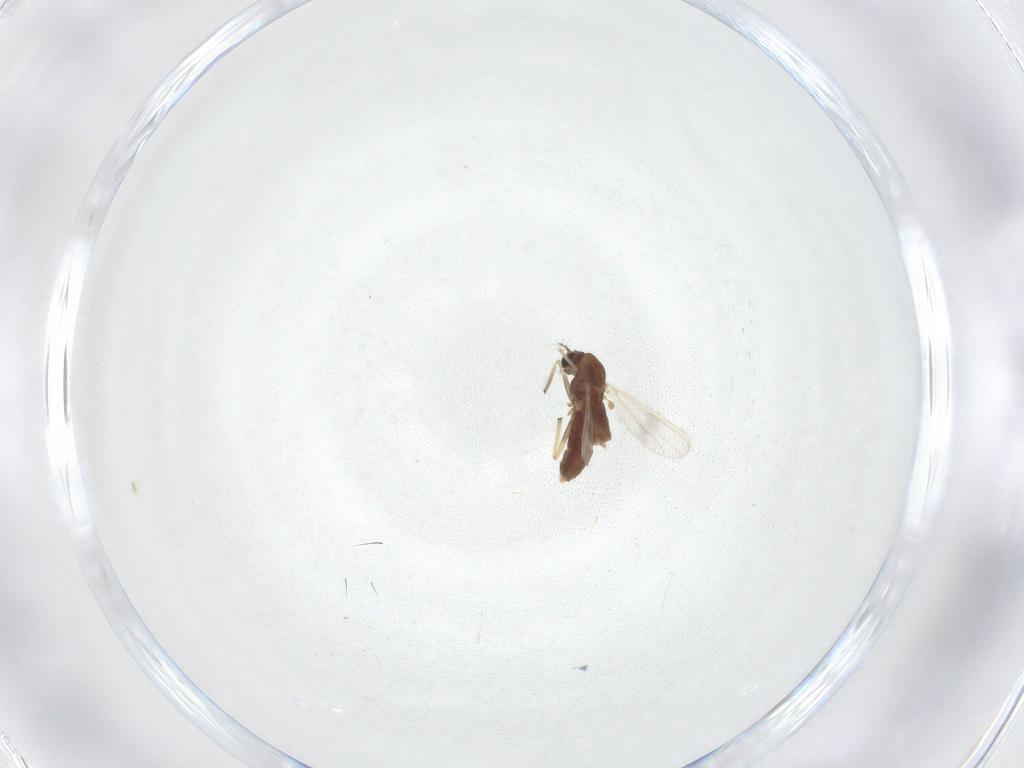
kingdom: Animalia
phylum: Arthropoda
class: Insecta
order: Diptera
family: Chironomidae
